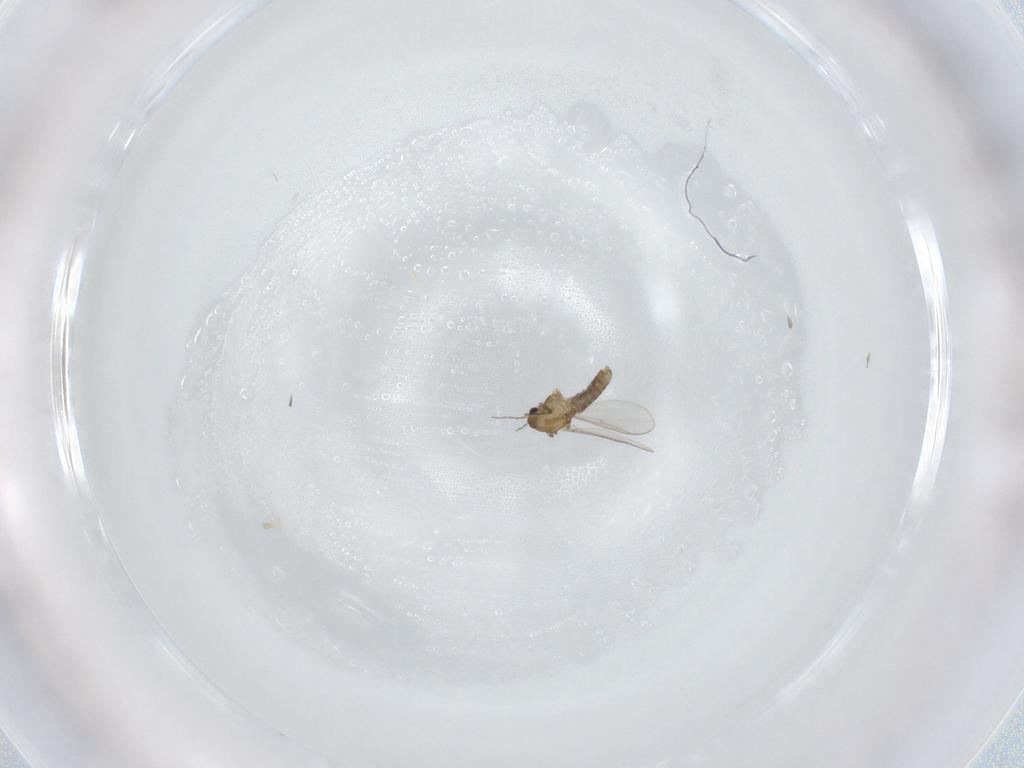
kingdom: Animalia
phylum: Arthropoda
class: Insecta
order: Diptera
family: Chironomidae
